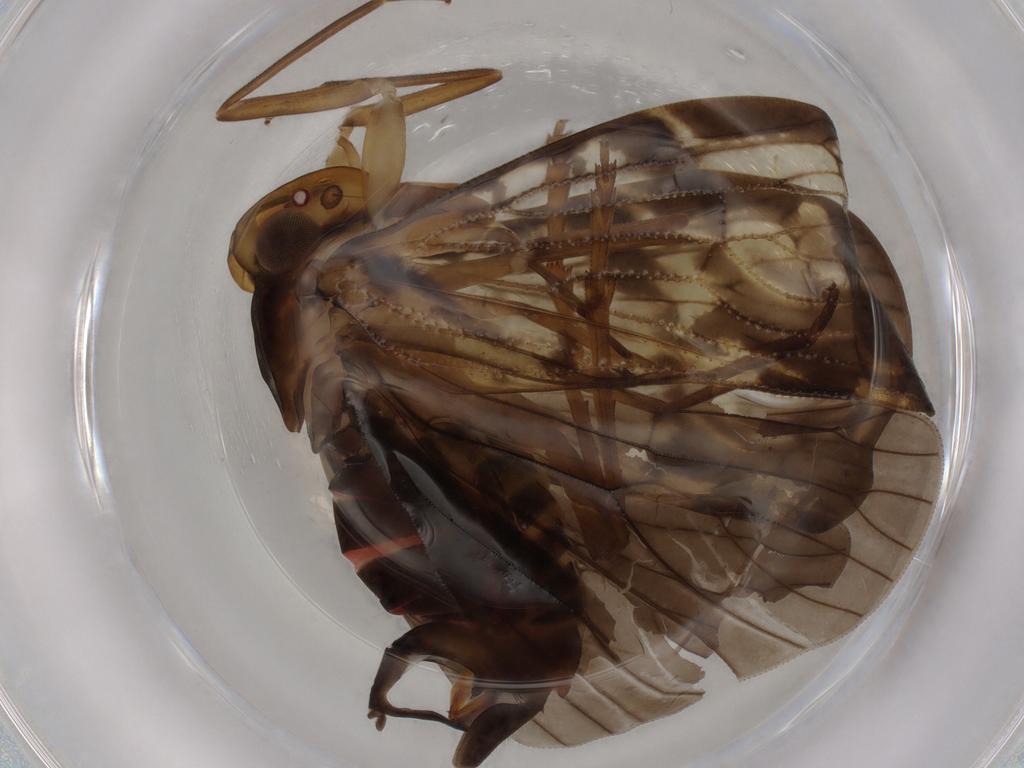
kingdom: Animalia
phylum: Arthropoda
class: Insecta
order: Hemiptera
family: Cixiidae
